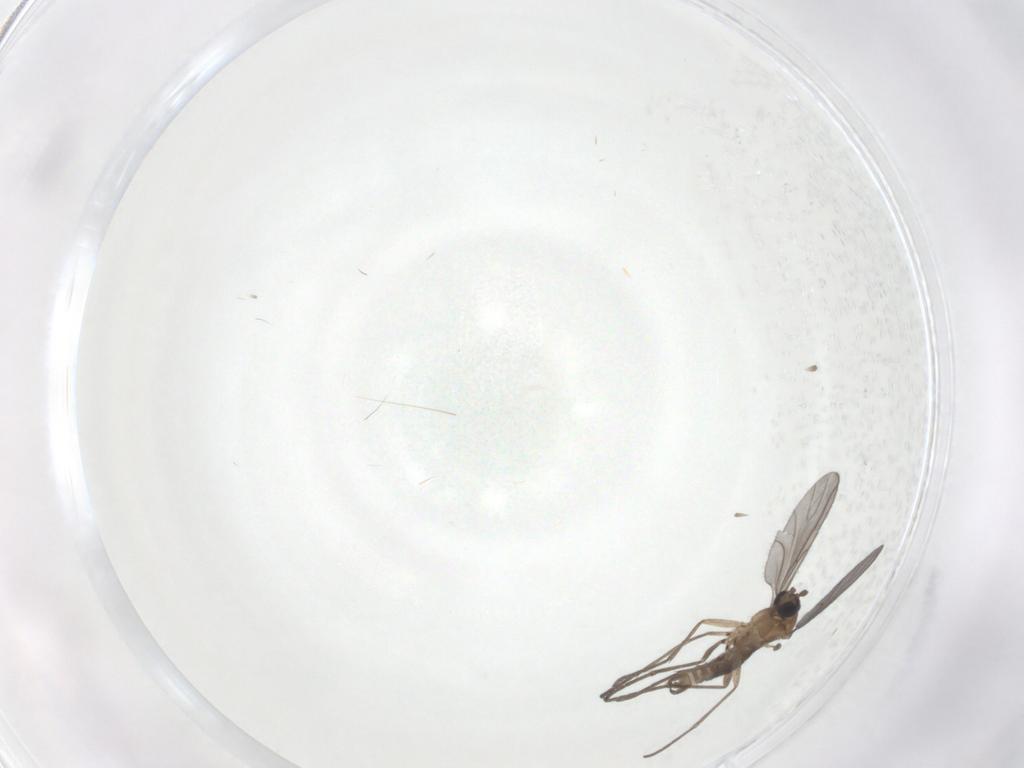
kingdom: Animalia
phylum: Arthropoda
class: Insecta
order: Diptera
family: Sciaridae
